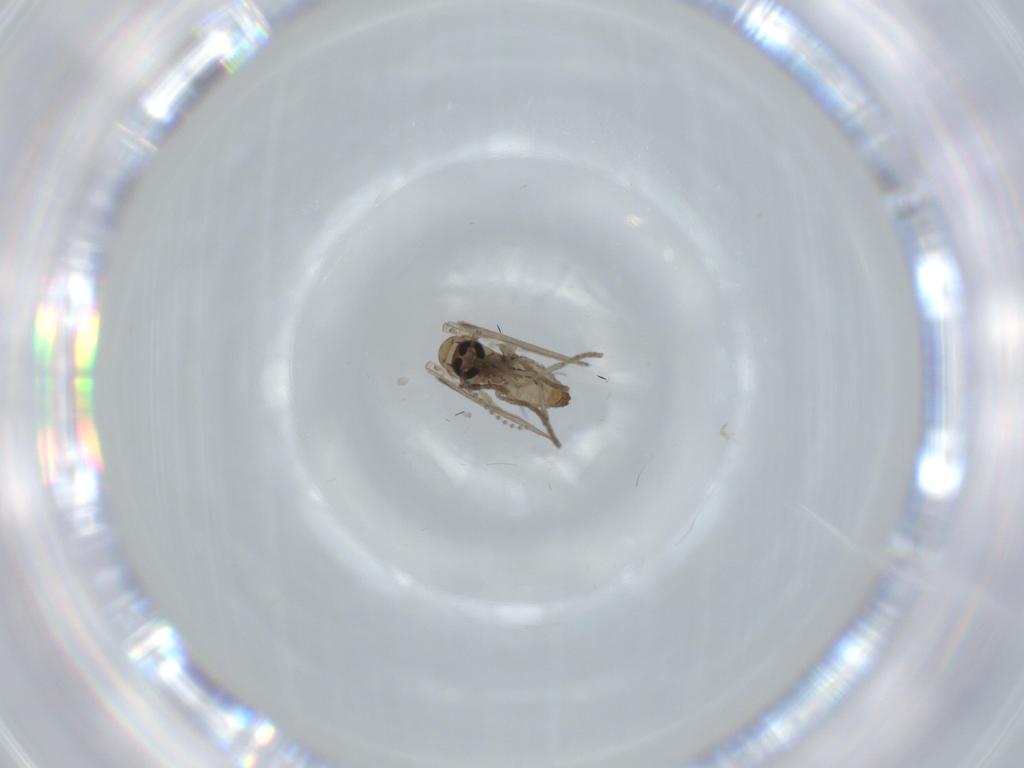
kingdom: Animalia
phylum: Arthropoda
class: Insecta
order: Diptera
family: Psychodidae
